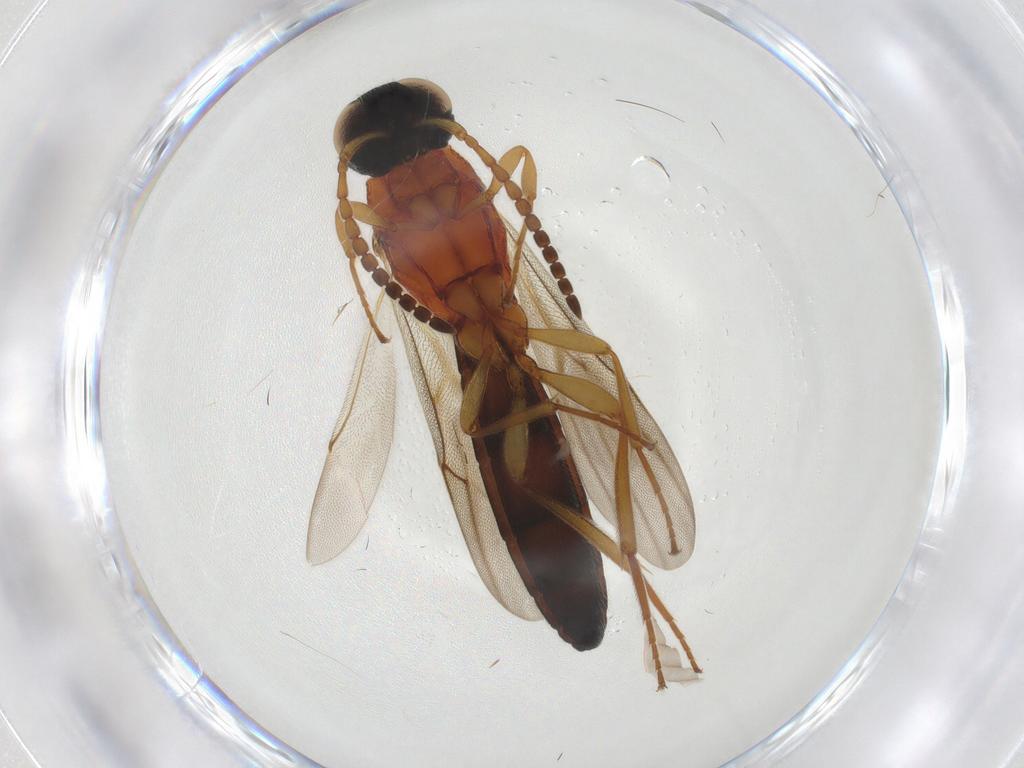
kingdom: Animalia
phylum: Arthropoda
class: Insecta
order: Hymenoptera
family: Scelionidae
